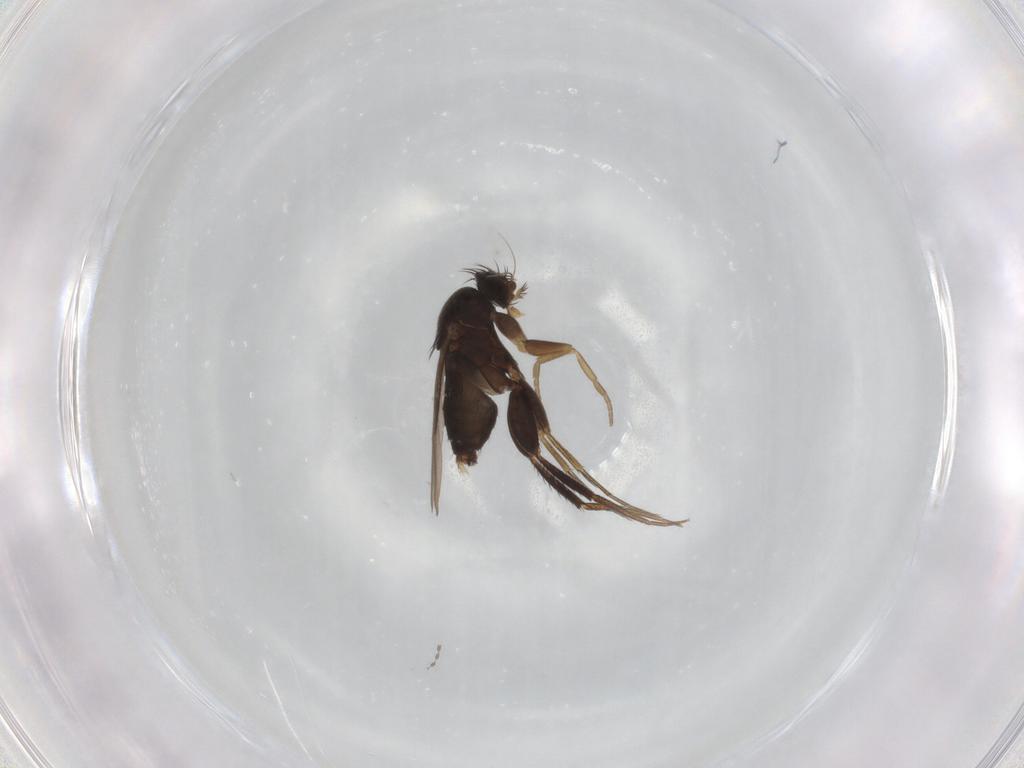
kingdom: Animalia
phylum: Arthropoda
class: Insecta
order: Diptera
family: Phoridae
